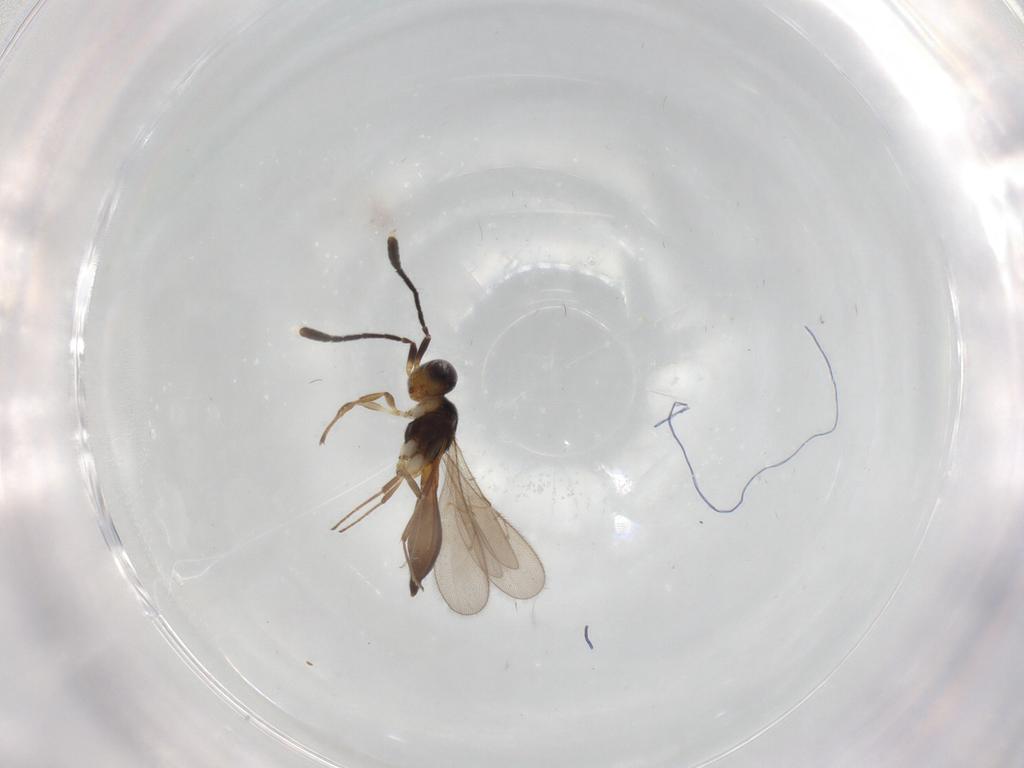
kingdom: Animalia
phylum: Arthropoda
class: Insecta
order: Hymenoptera
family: Scelionidae
